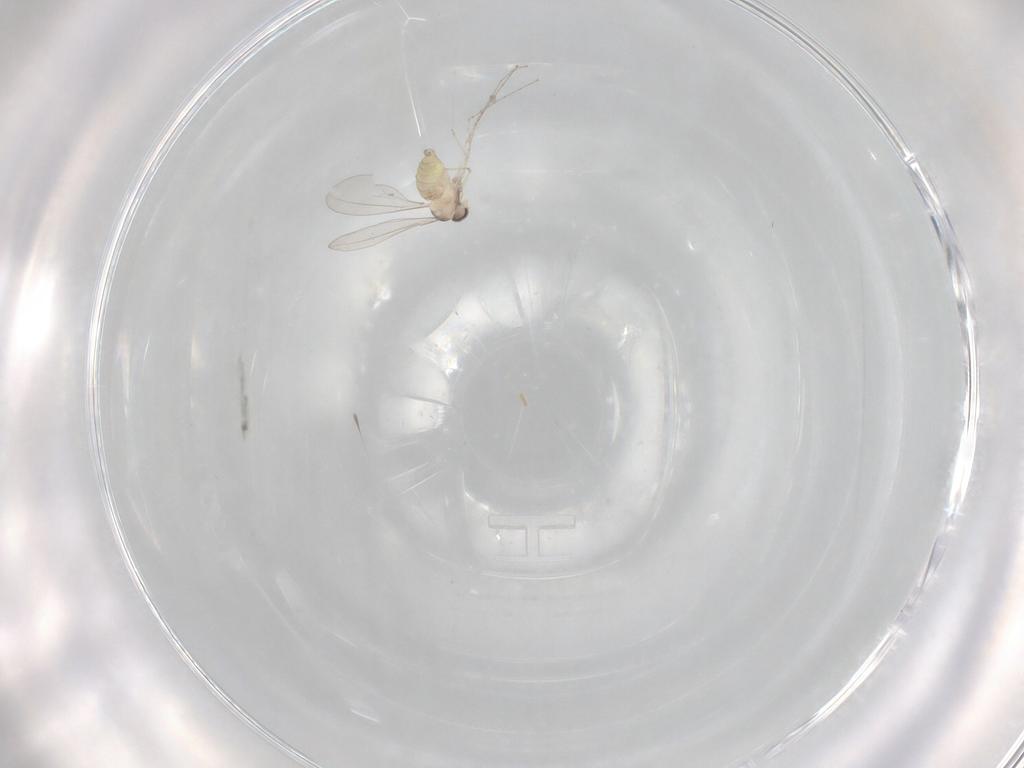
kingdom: Animalia
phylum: Arthropoda
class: Insecta
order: Diptera
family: Cecidomyiidae
